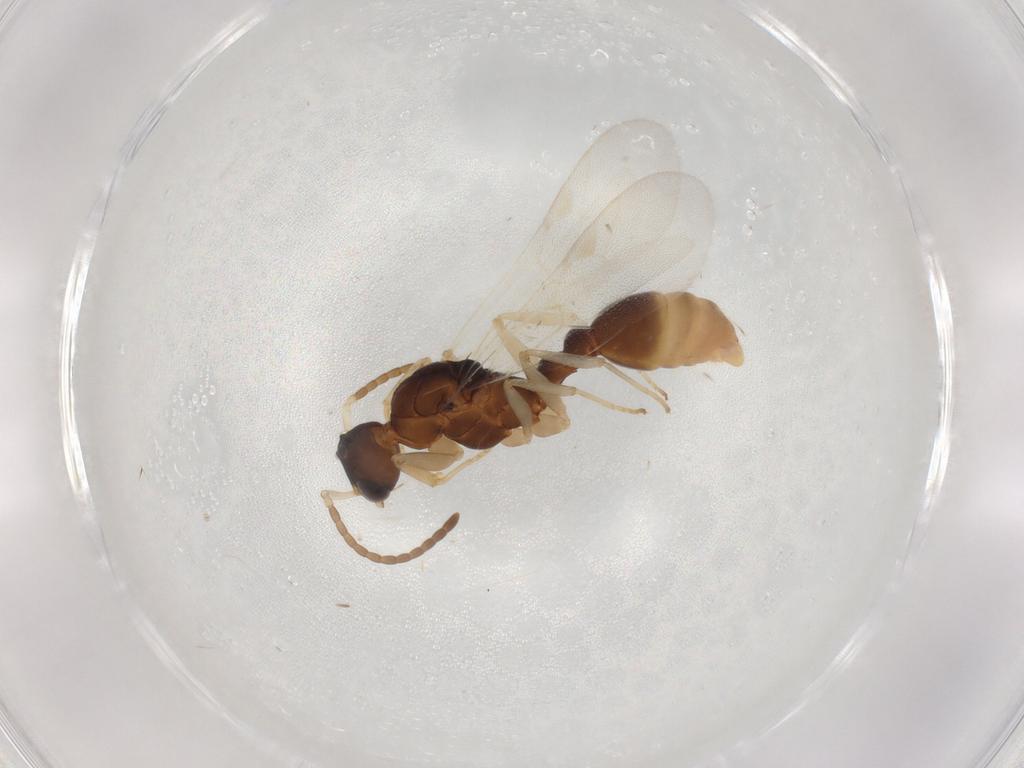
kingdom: Animalia
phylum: Arthropoda
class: Insecta
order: Hymenoptera
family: Formicidae
